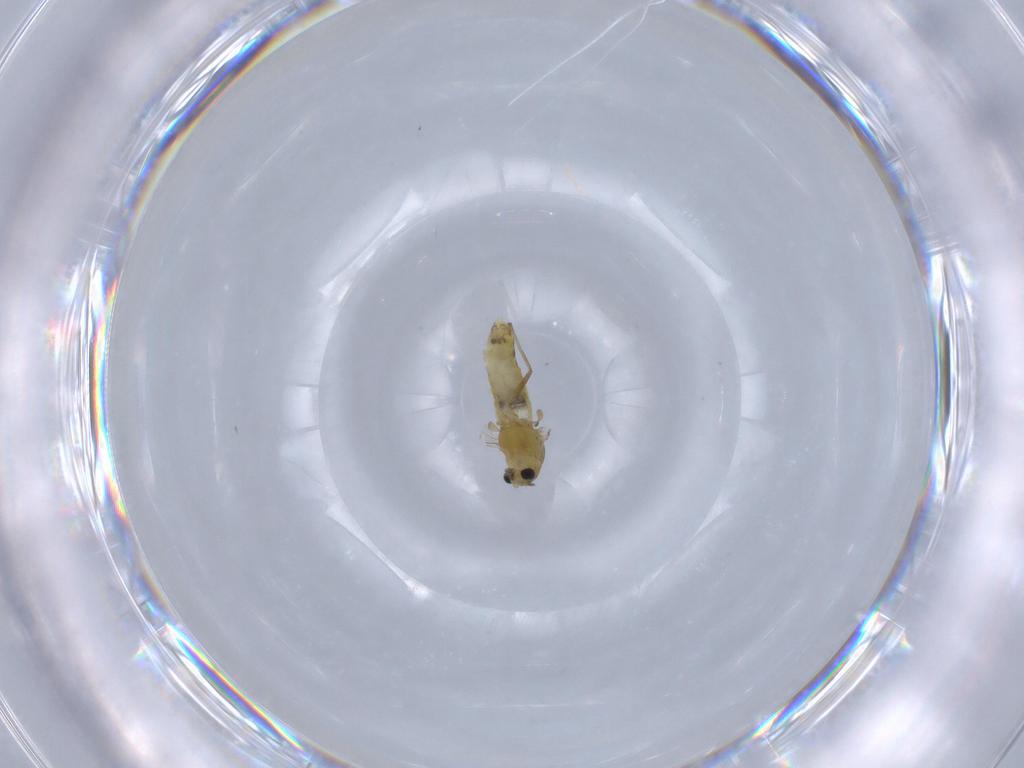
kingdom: Animalia
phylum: Arthropoda
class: Insecta
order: Diptera
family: Chironomidae
